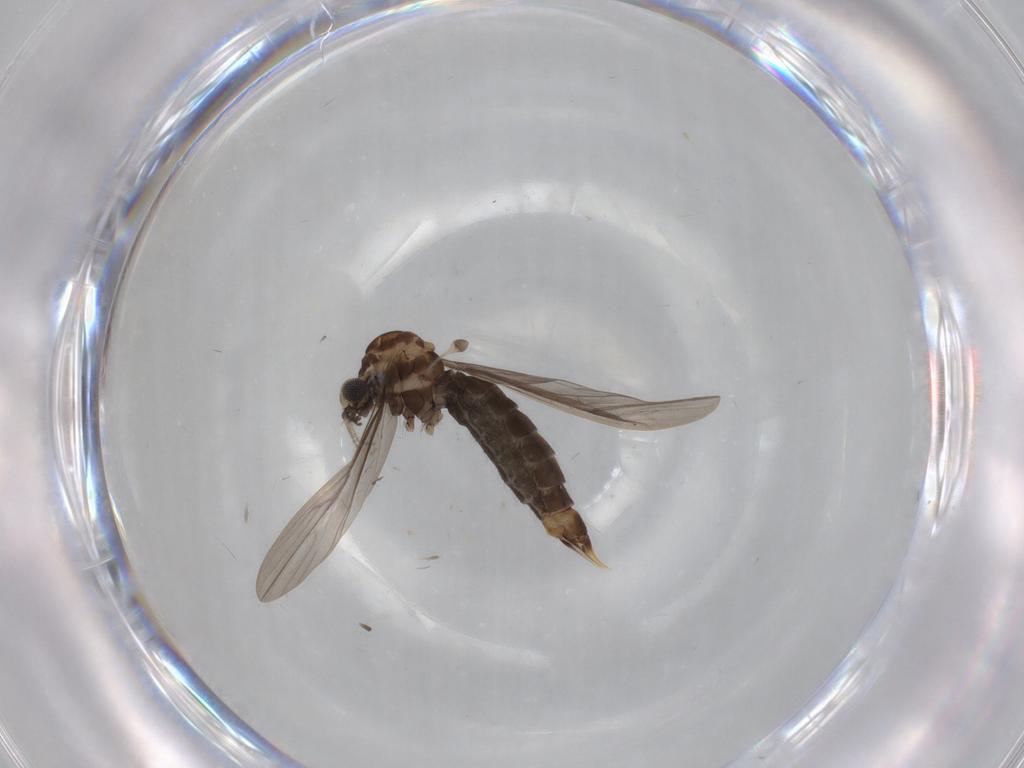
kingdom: Animalia
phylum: Arthropoda
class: Insecta
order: Diptera
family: Limoniidae
